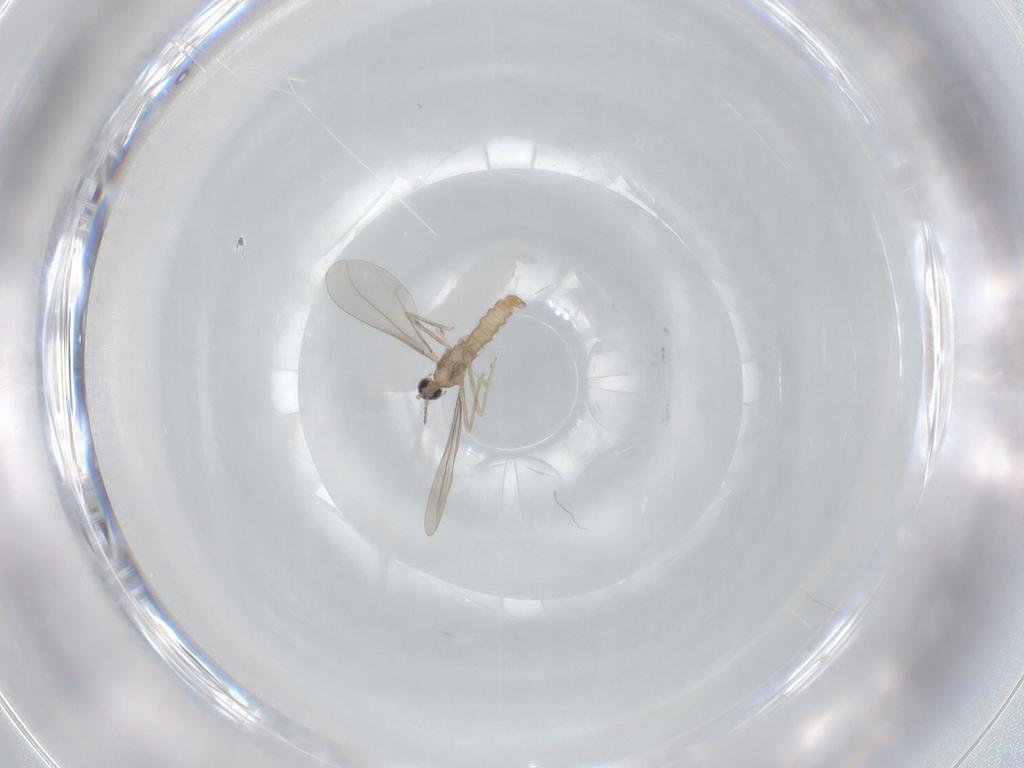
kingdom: Animalia
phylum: Arthropoda
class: Insecta
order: Diptera
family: Cecidomyiidae
